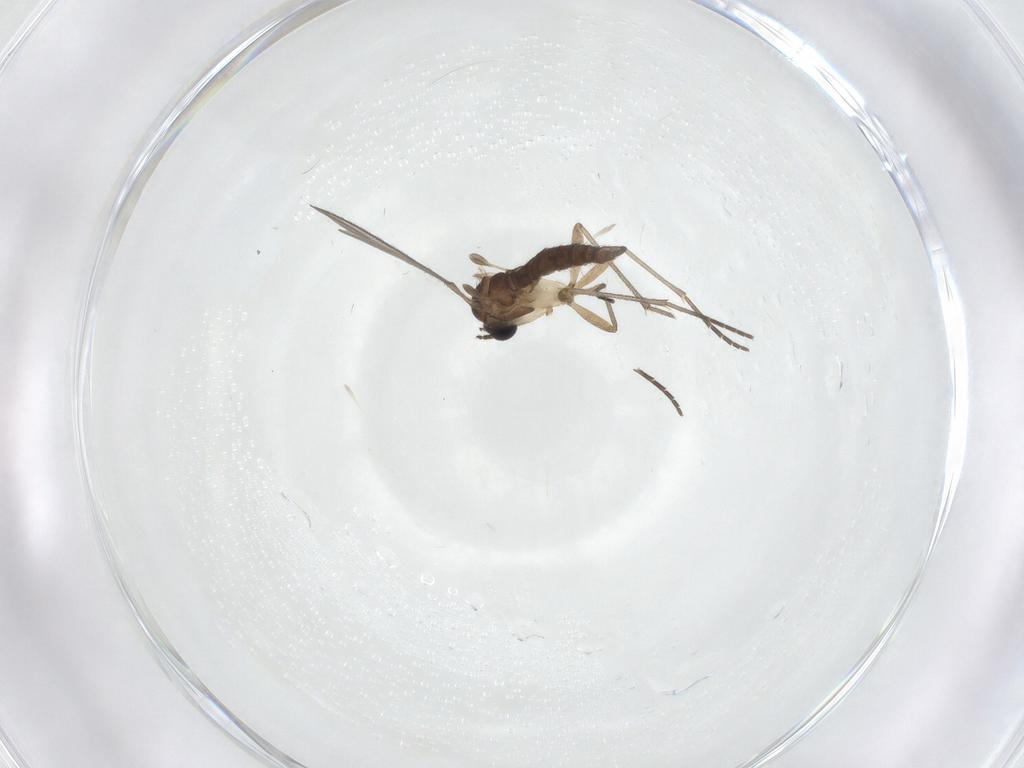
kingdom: Animalia
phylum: Arthropoda
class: Insecta
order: Diptera
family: Sciaridae
